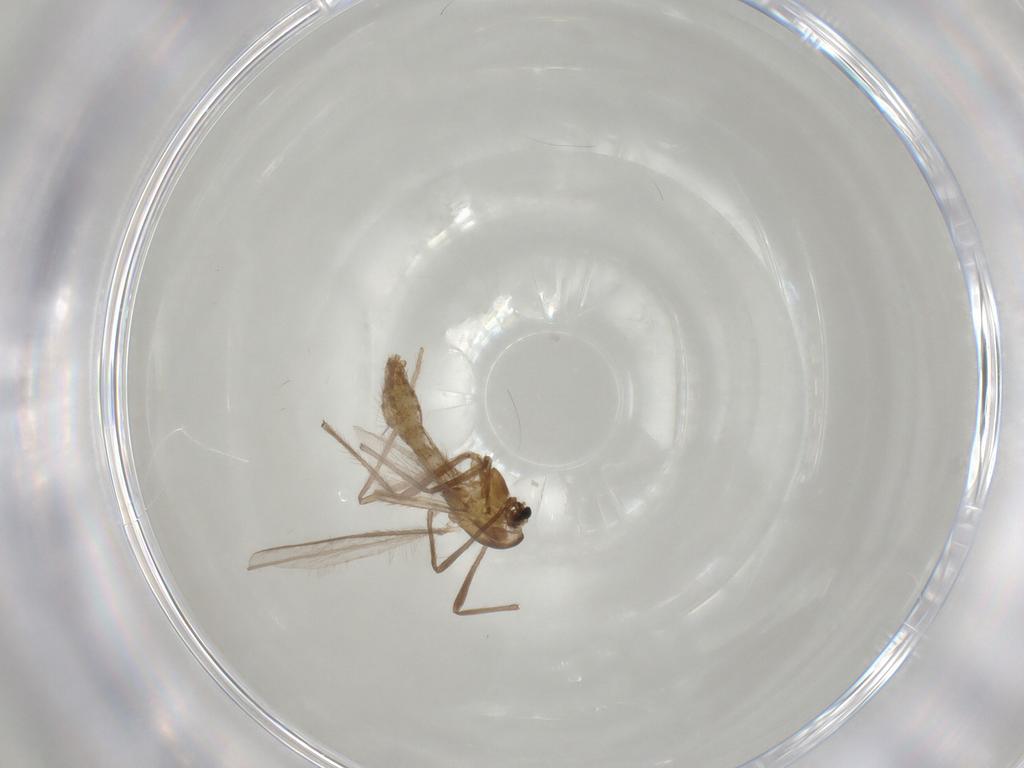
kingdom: Animalia
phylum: Arthropoda
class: Insecta
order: Diptera
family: Chironomidae
